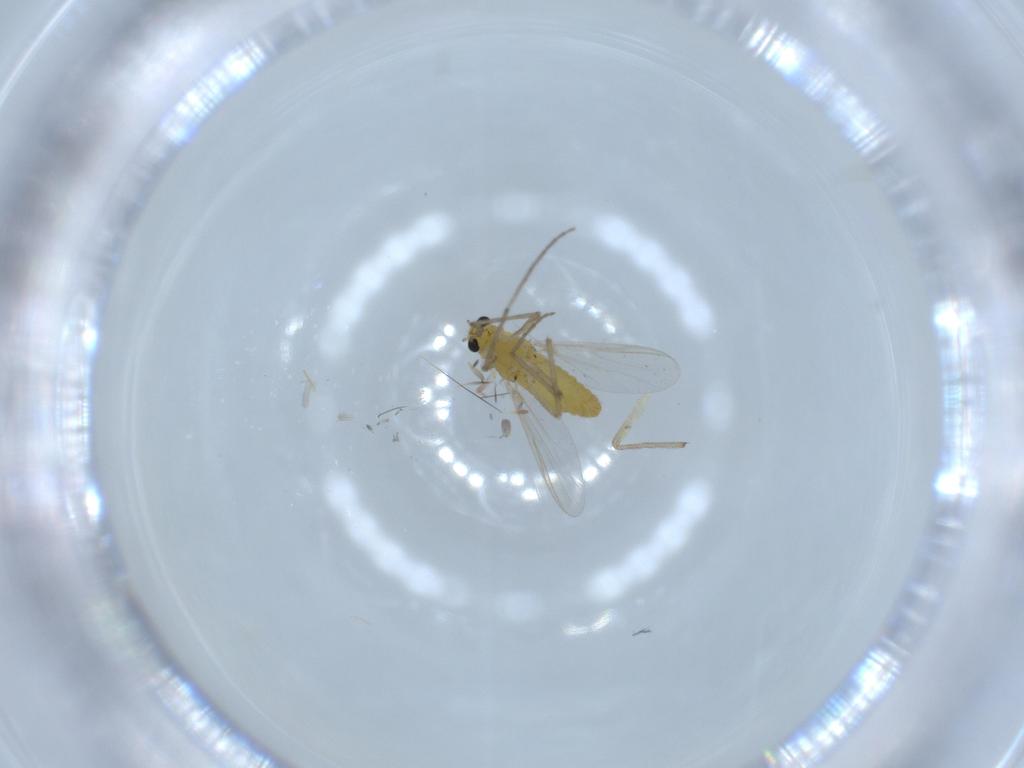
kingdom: Animalia
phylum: Arthropoda
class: Insecta
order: Diptera
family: Chironomidae
